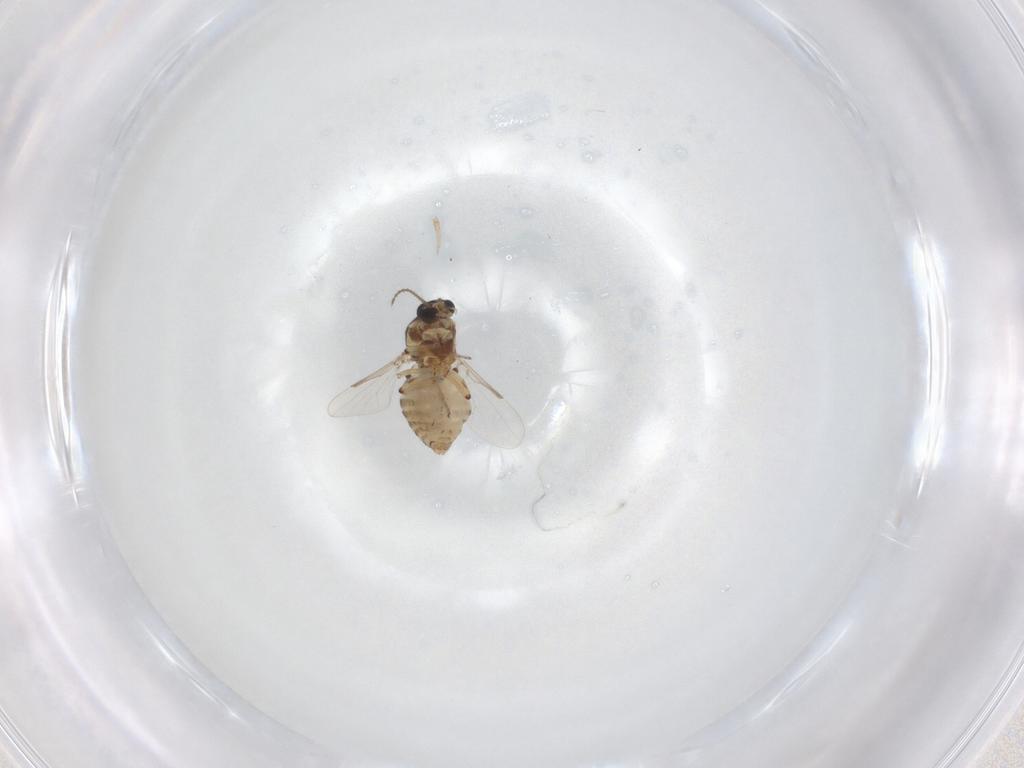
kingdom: Animalia
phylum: Arthropoda
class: Insecta
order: Diptera
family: Ceratopogonidae
